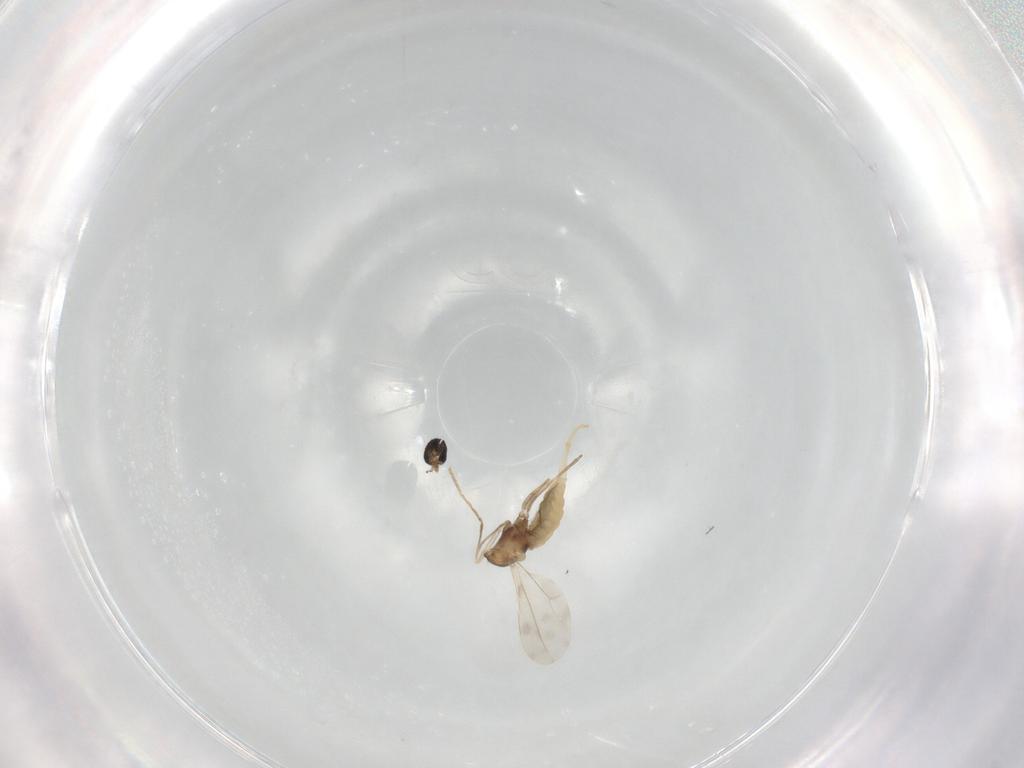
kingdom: Animalia
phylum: Arthropoda
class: Insecta
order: Diptera
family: Cecidomyiidae
